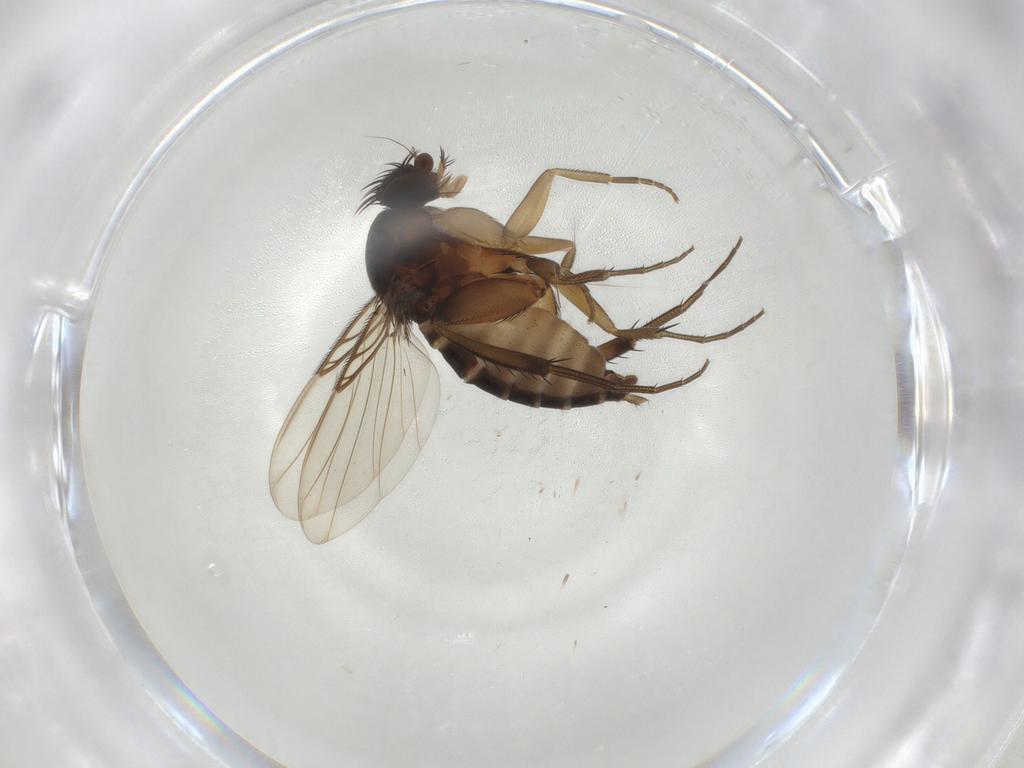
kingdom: Animalia
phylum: Arthropoda
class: Insecta
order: Diptera
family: Phoridae
